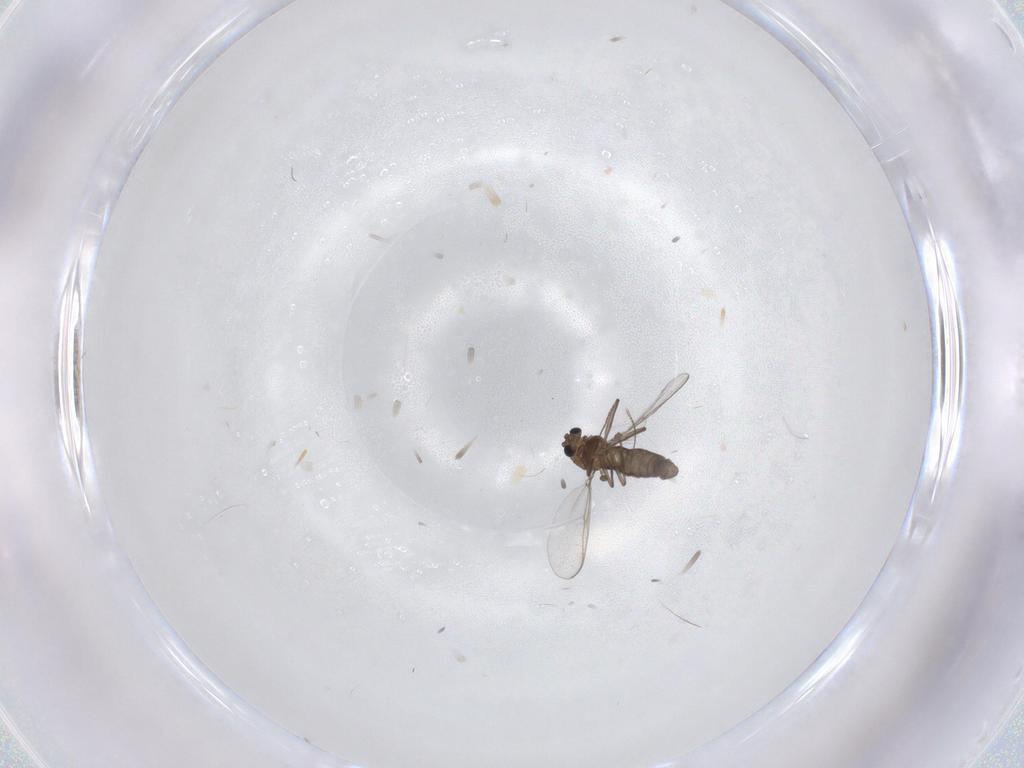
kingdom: Animalia
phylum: Arthropoda
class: Insecta
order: Diptera
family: Chironomidae
